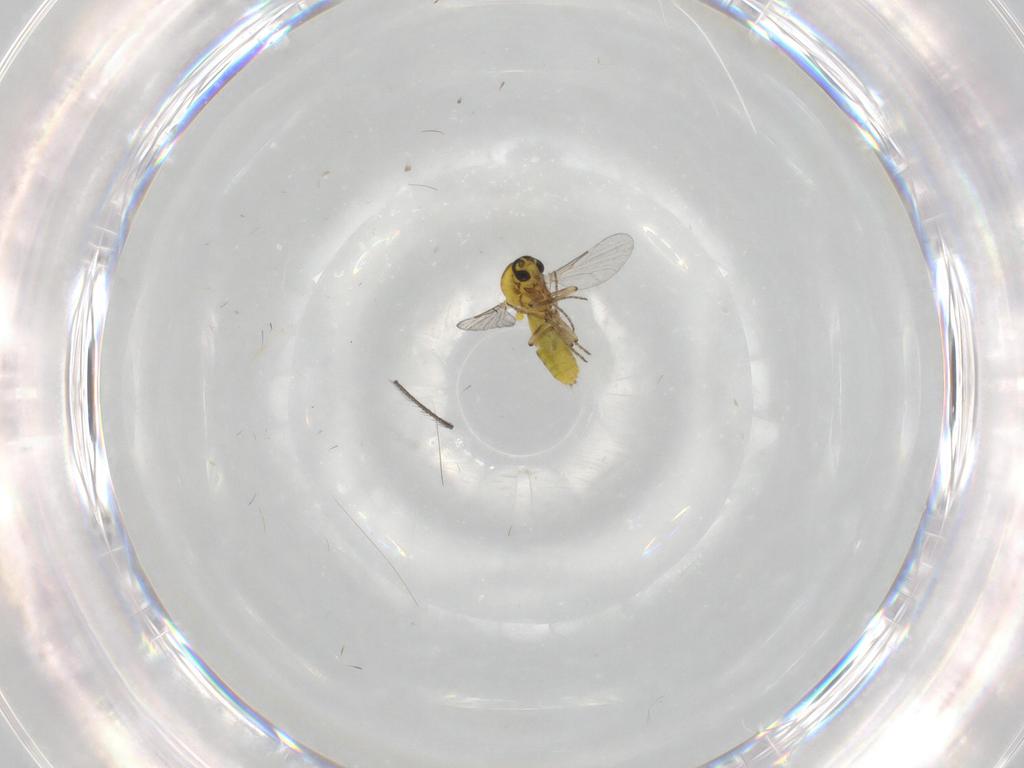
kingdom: Animalia
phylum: Arthropoda
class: Insecta
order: Diptera
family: Ceratopogonidae
